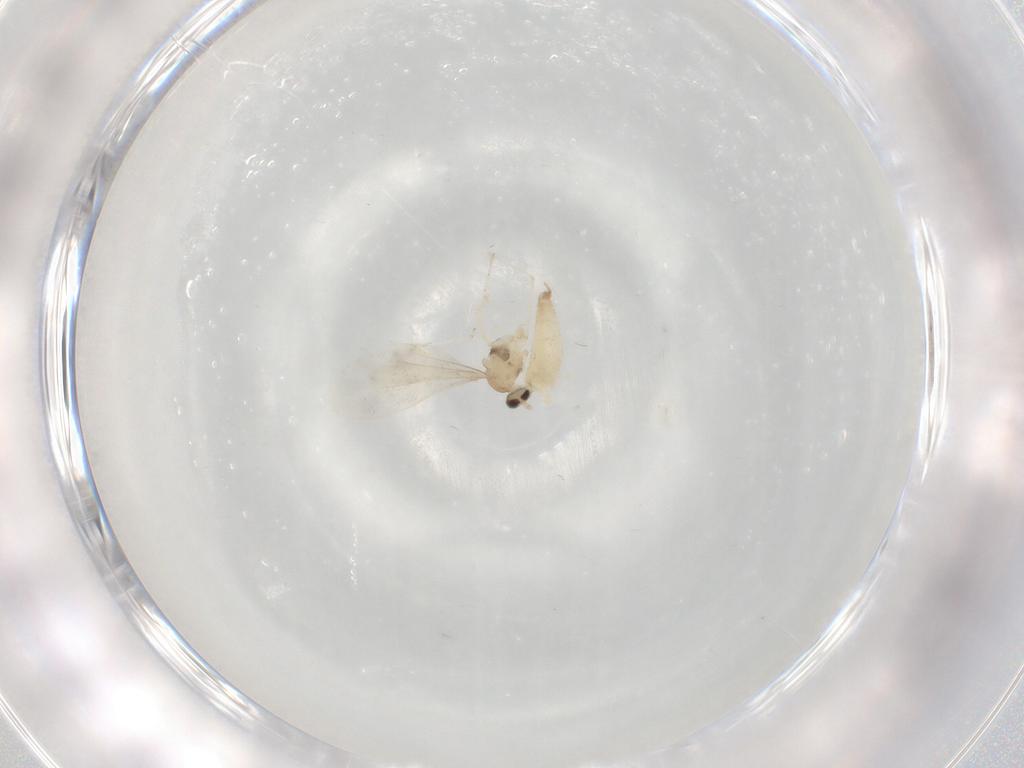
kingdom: Animalia
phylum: Arthropoda
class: Insecta
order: Diptera
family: Cecidomyiidae
